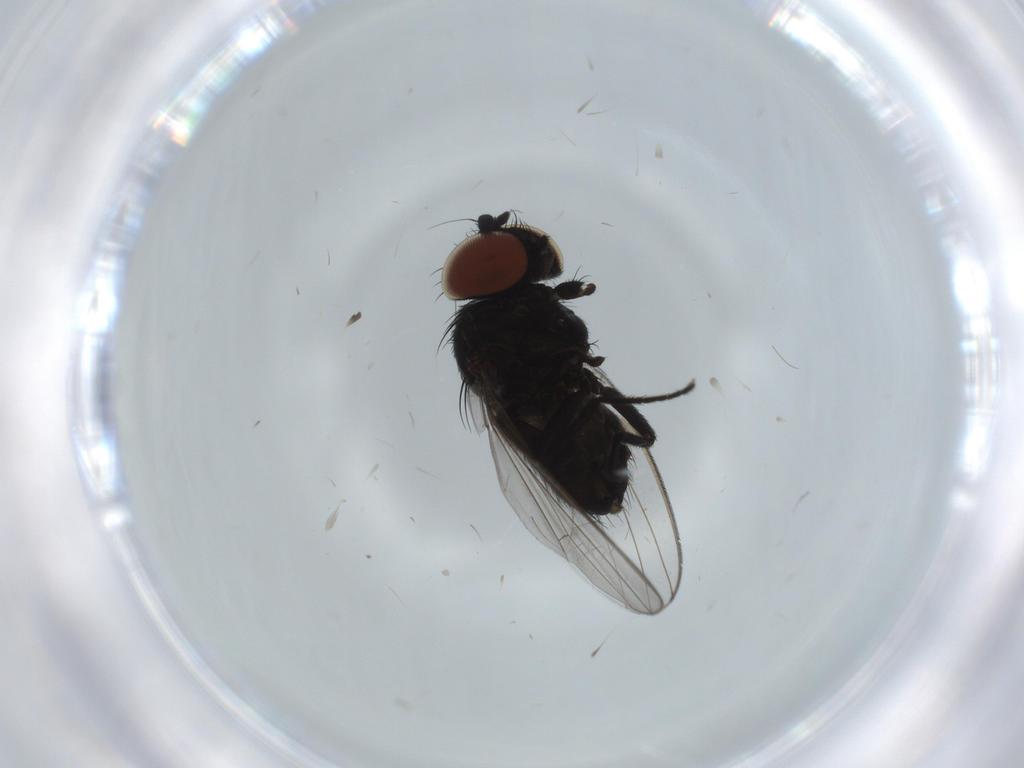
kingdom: Animalia
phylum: Arthropoda
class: Insecta
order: Diptera
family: Milichiidae
